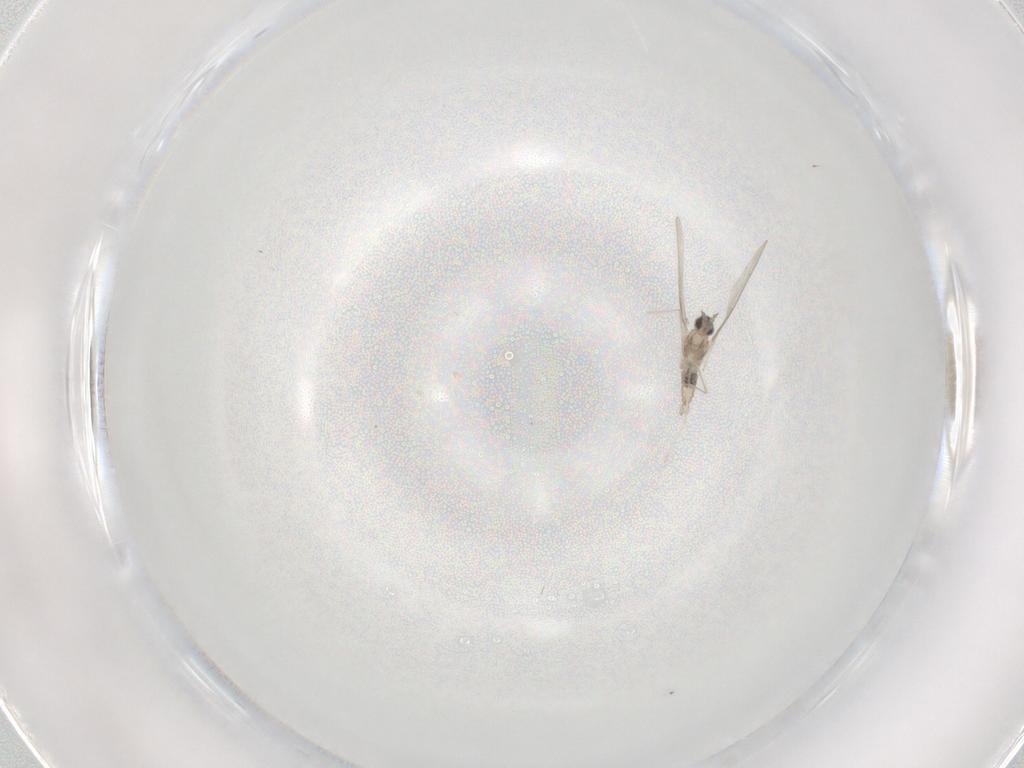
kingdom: Animalia
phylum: Arthropoda
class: Insecta
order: Diptera
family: Cecidomyiidae
